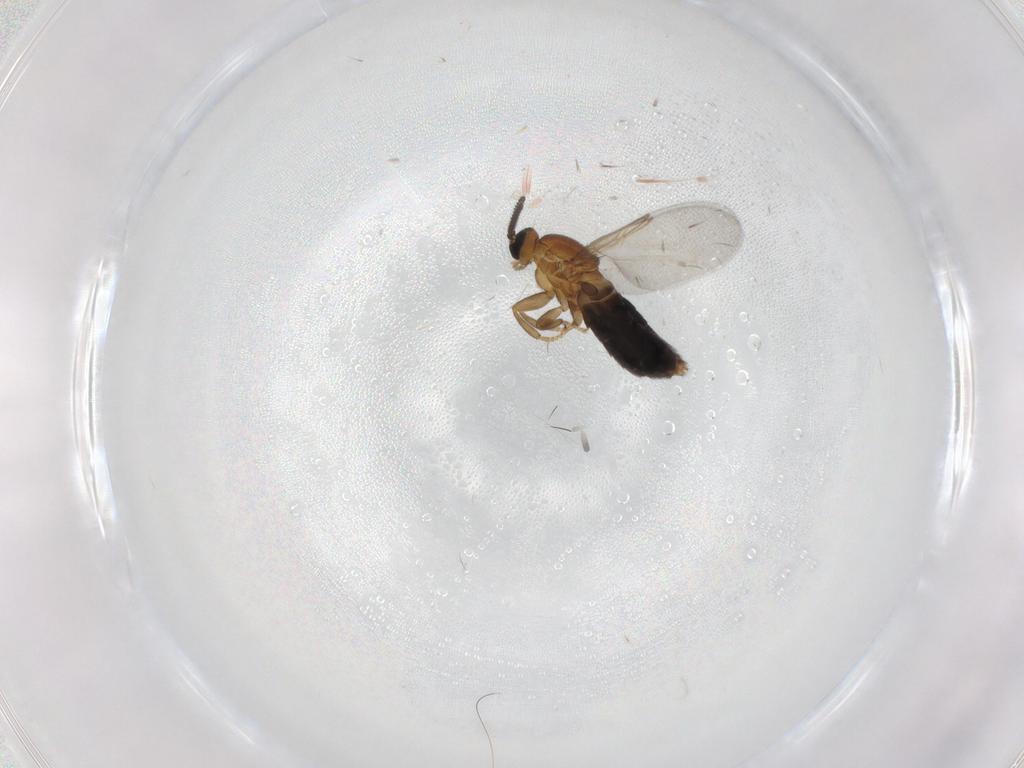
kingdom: Animalia
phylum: Arthropoda
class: Insecta
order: Diptera
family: Scatopsidae
